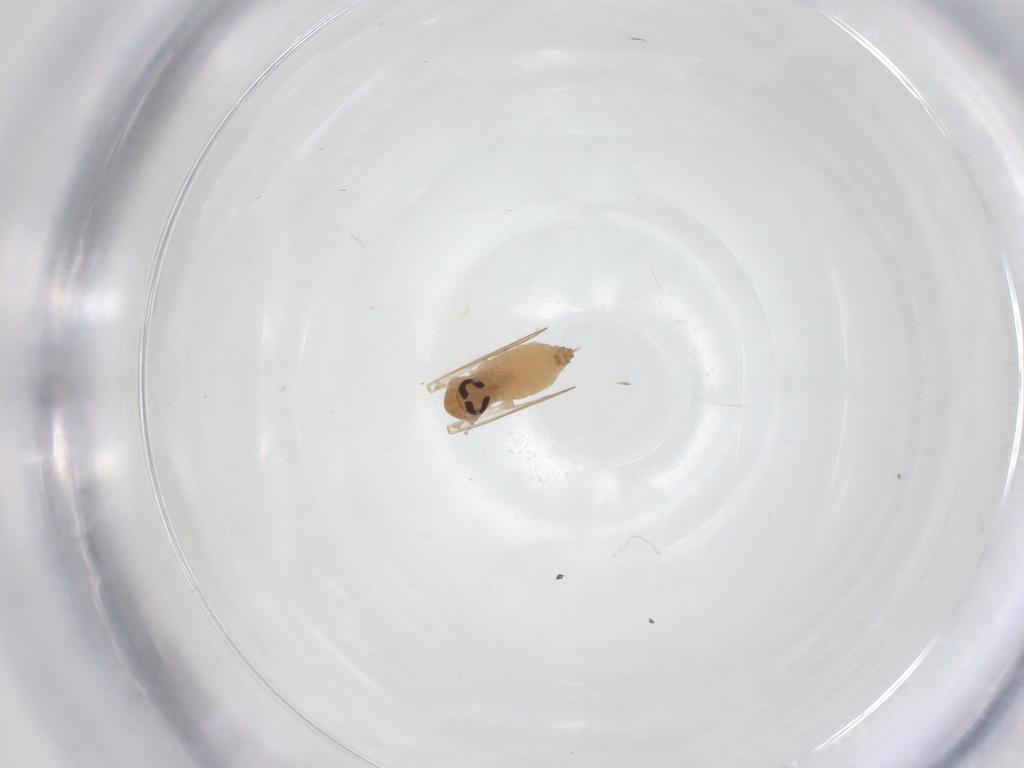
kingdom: Animalia
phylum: Arthropoda
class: Insecta
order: Diptera
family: Psychodidae
